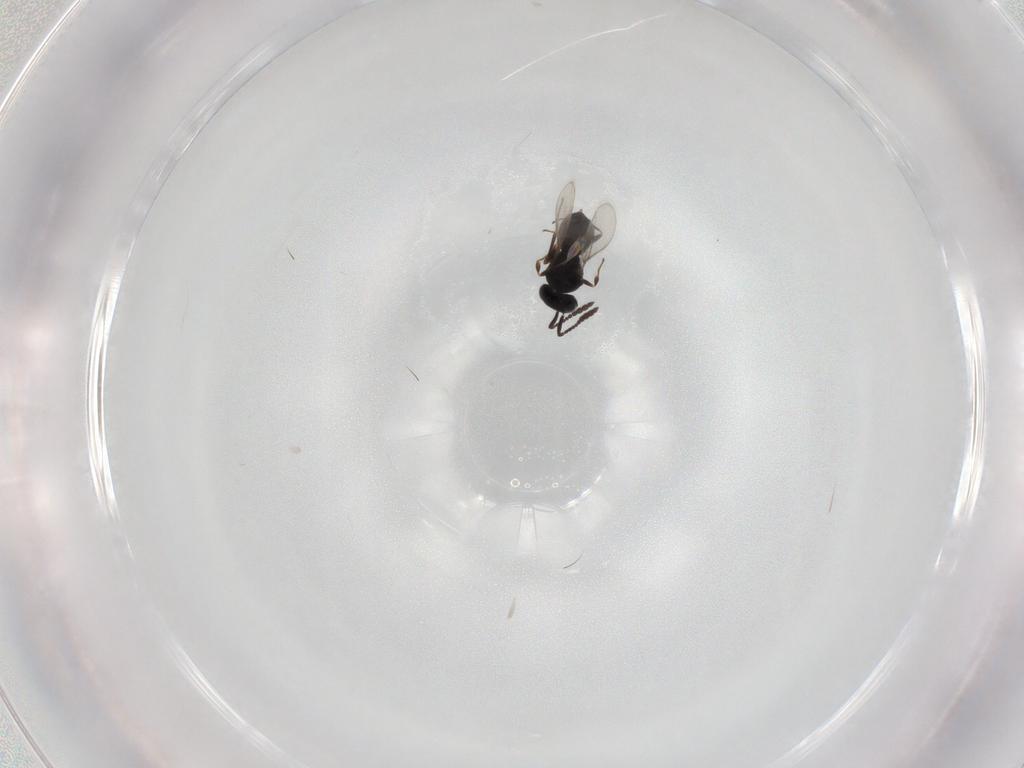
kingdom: Animalia
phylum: Arthropoda
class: Insecta
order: Hymenoptera
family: Scelionidae
